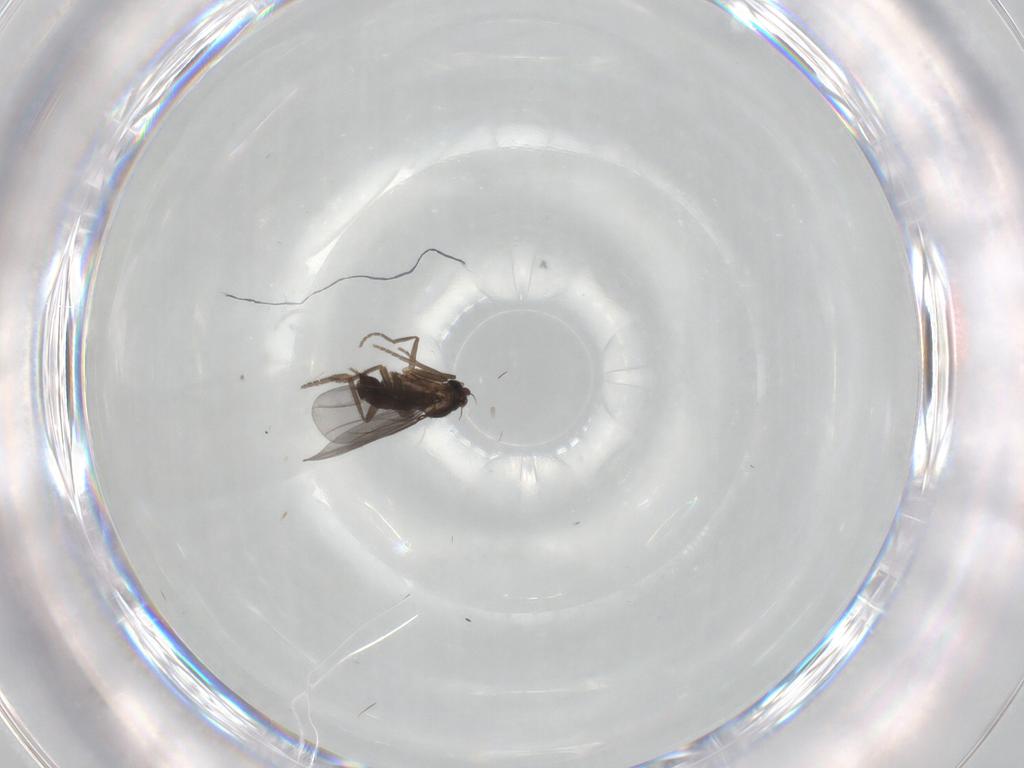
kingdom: Animalia
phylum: Arthropoda
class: Insecta
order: Diptera
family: Phoridae
